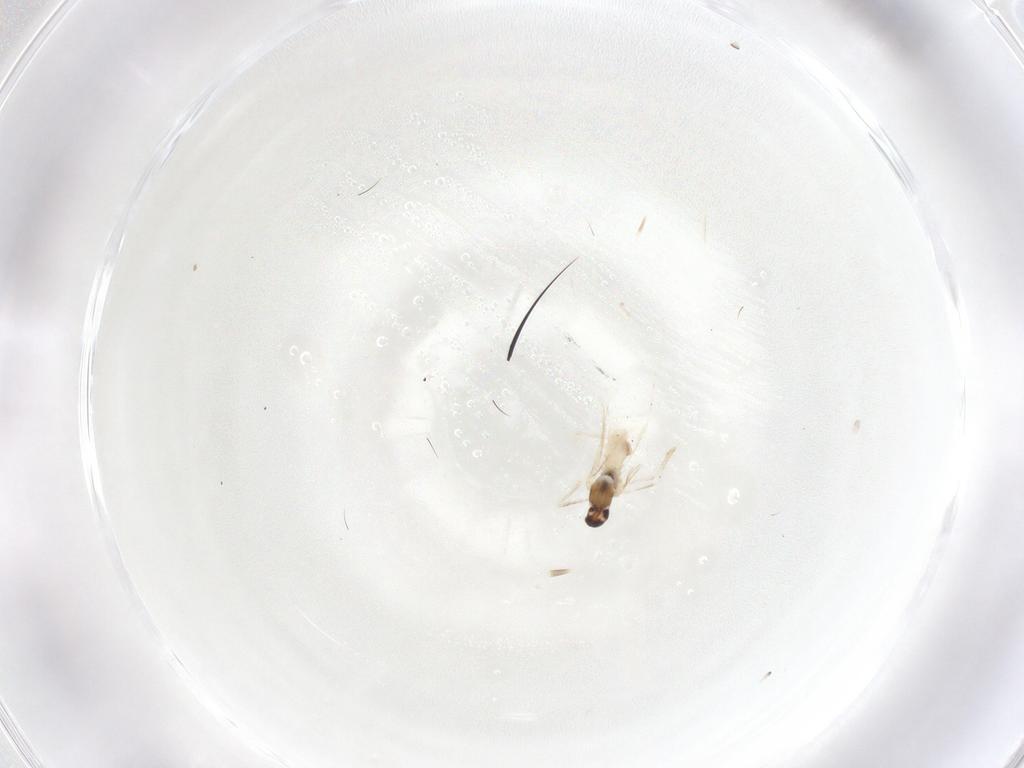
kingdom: Animalia
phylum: Arthropoda
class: Insecta
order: Diptera
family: Cecidomyiidae
